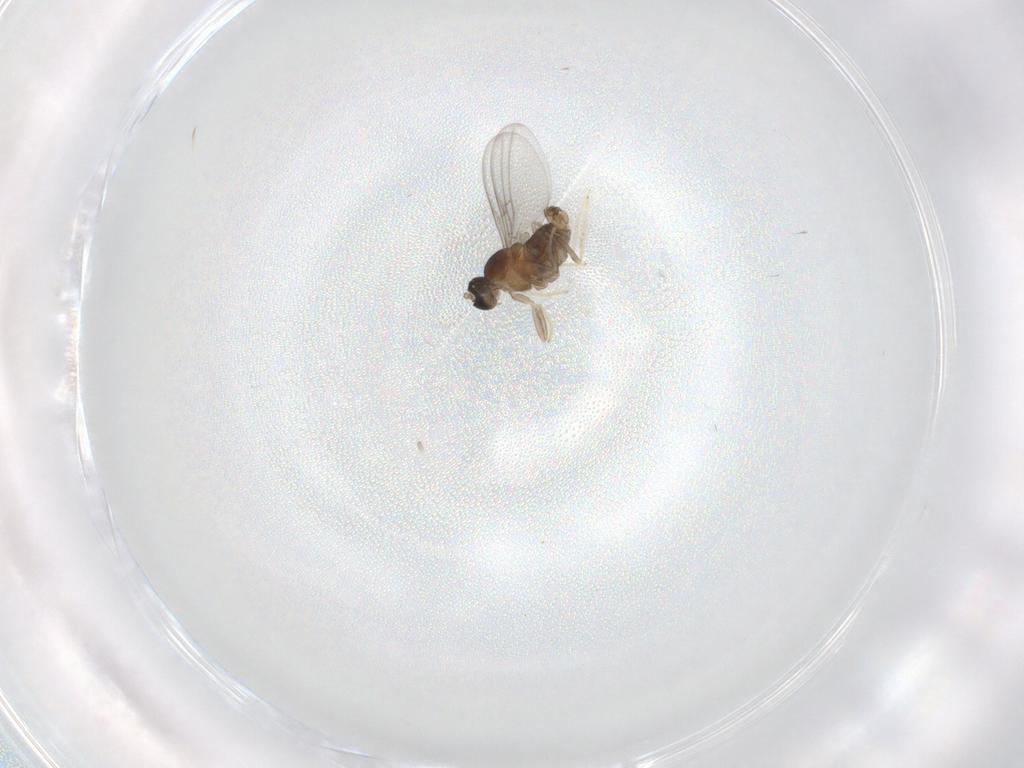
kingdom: Animalia
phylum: Arthropoda
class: Insecta
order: Diptera
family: Cecidomyiidae
